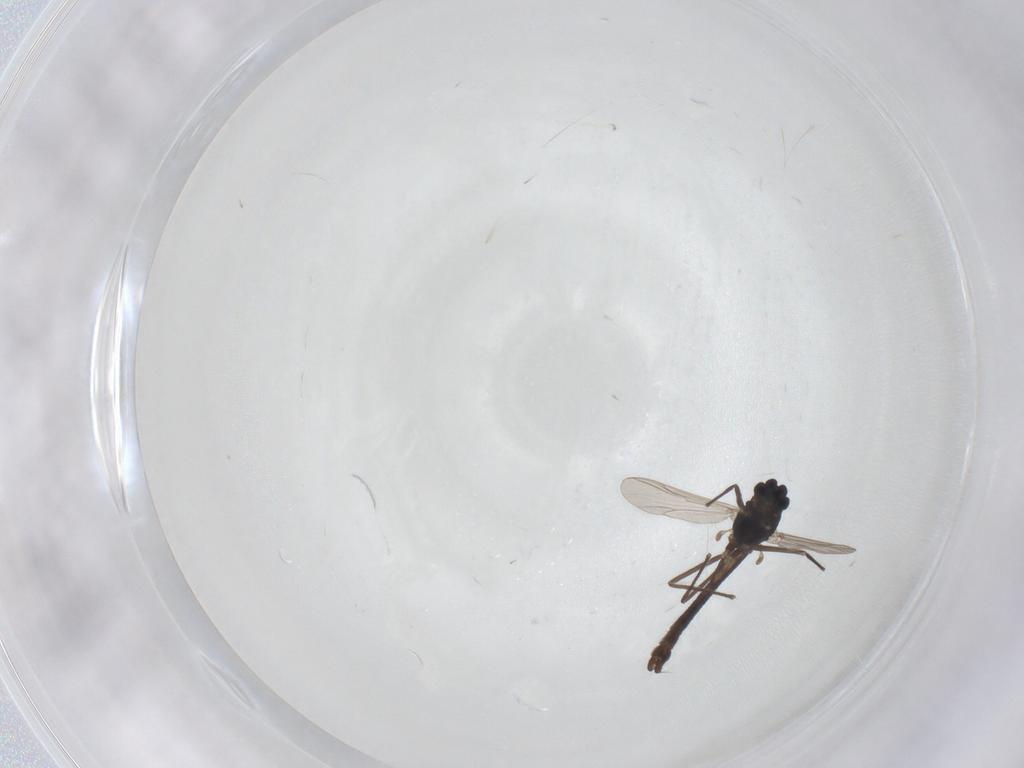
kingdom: Animalia
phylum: Arthropoda
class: Insecta
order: Diptera
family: Chironomidae
